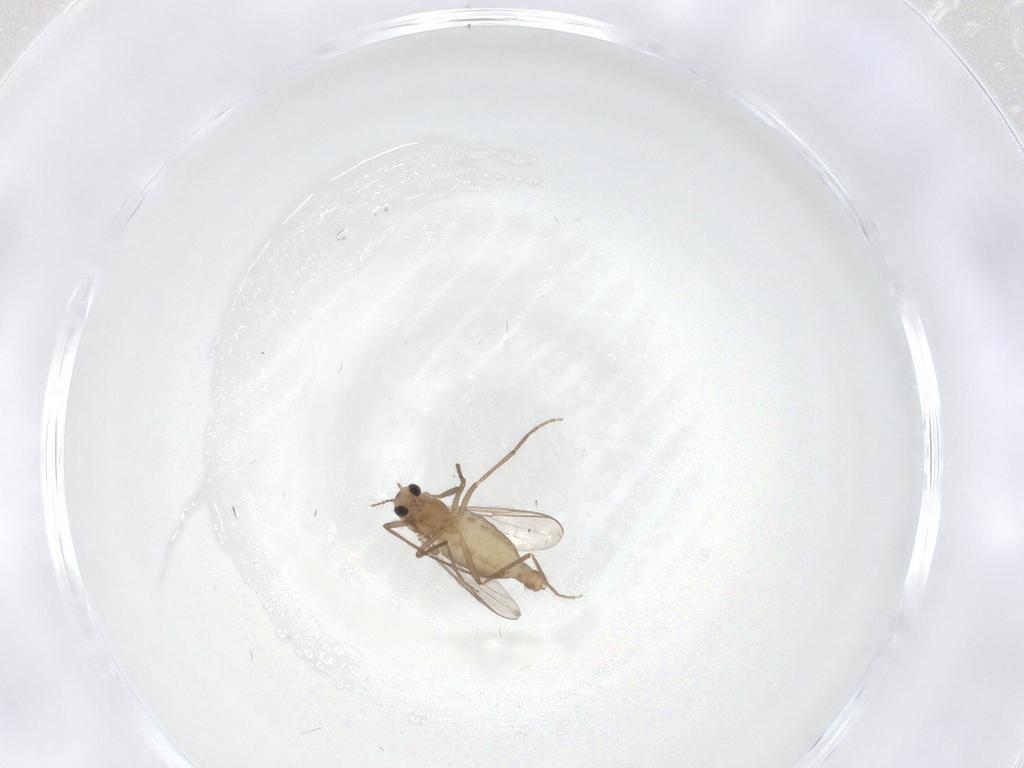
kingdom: Animalia
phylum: Arthropoda
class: Insecta
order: Diptera
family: Chironomidae
